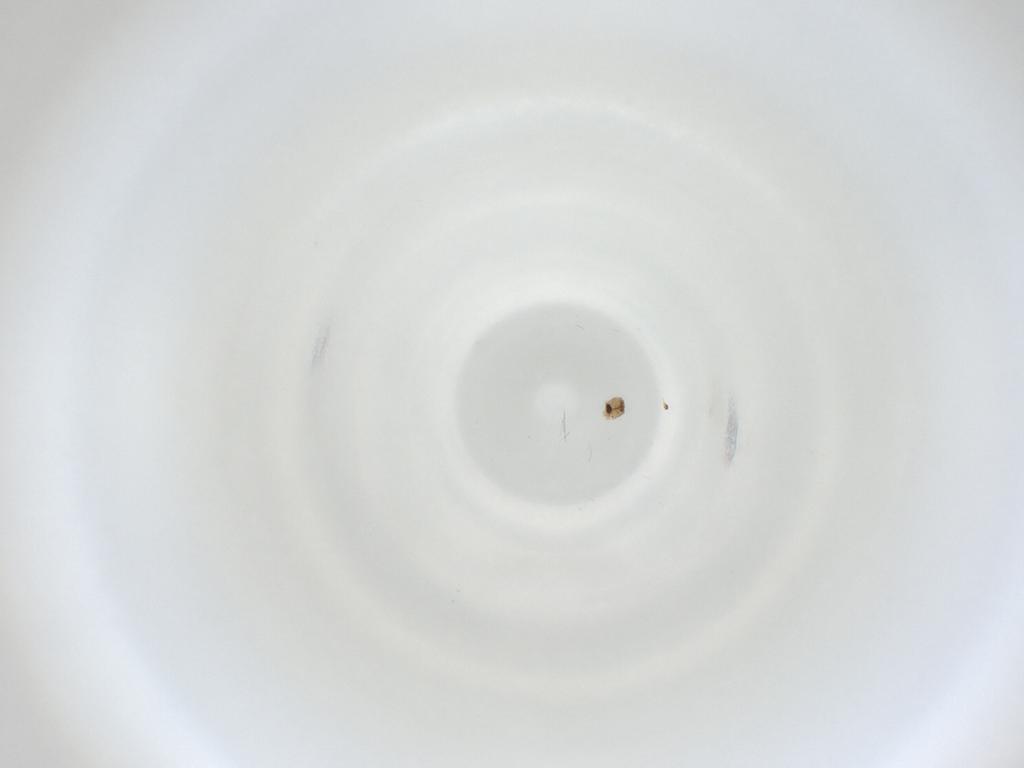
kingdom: Animalia
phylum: Arthropoda
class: Insecta
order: Diptera
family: Cecidomyiidae
